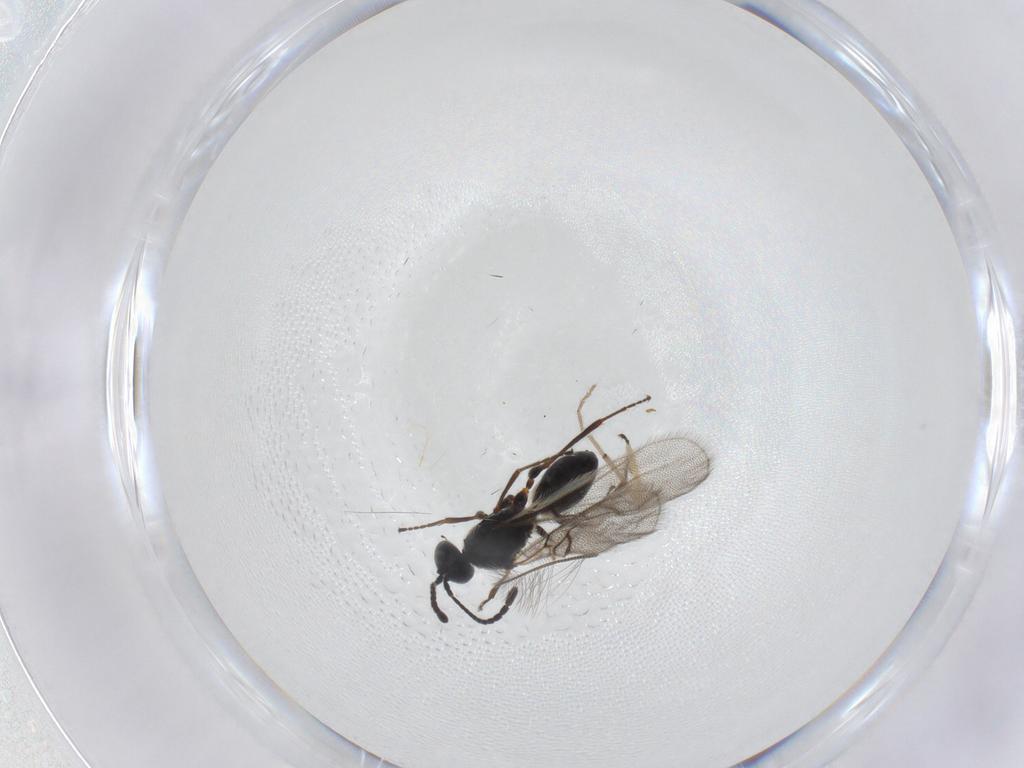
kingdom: Animalia
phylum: Arthropoda
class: Insecta
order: Hymenoptera
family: Figitidae
